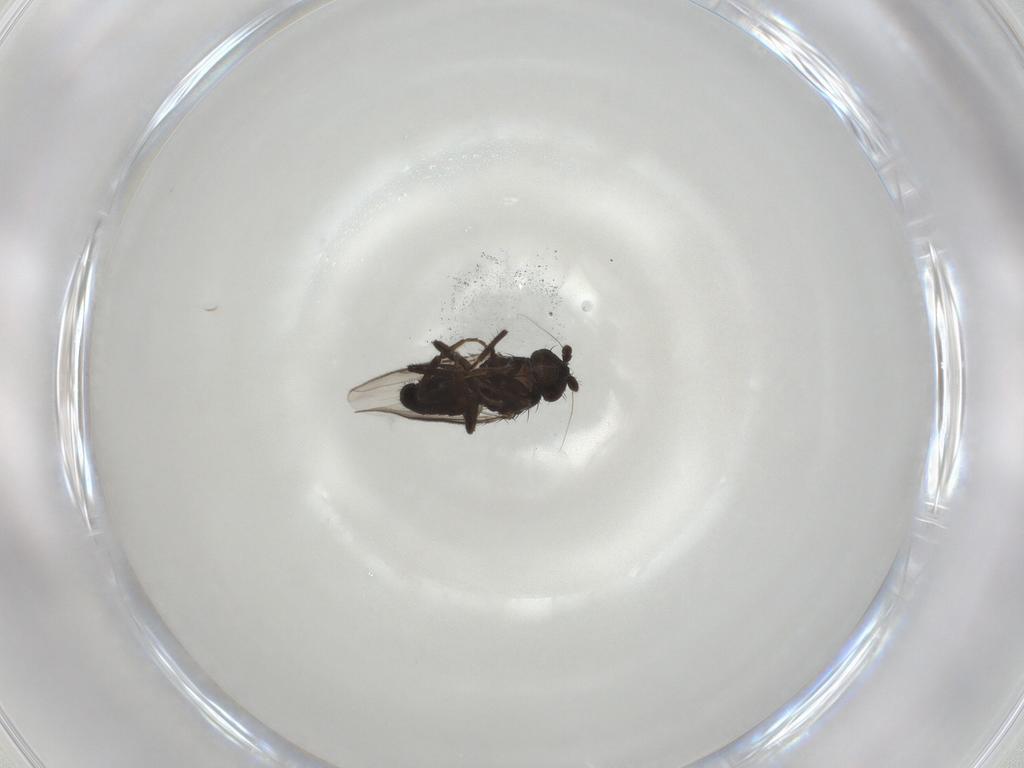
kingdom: Animalia
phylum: Arthropoda
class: Insecta
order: Diptera
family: Sphaeroceridae
